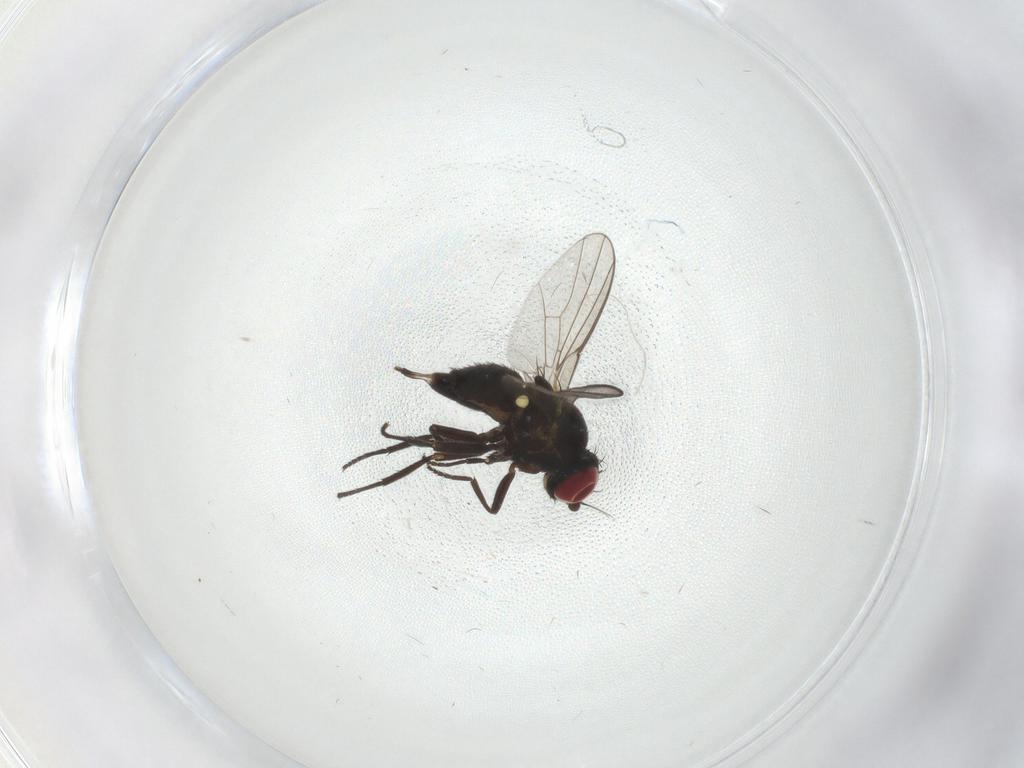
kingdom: Animalia
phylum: Arthropoda
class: Insecta
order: Diptera
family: Agromyzidae
